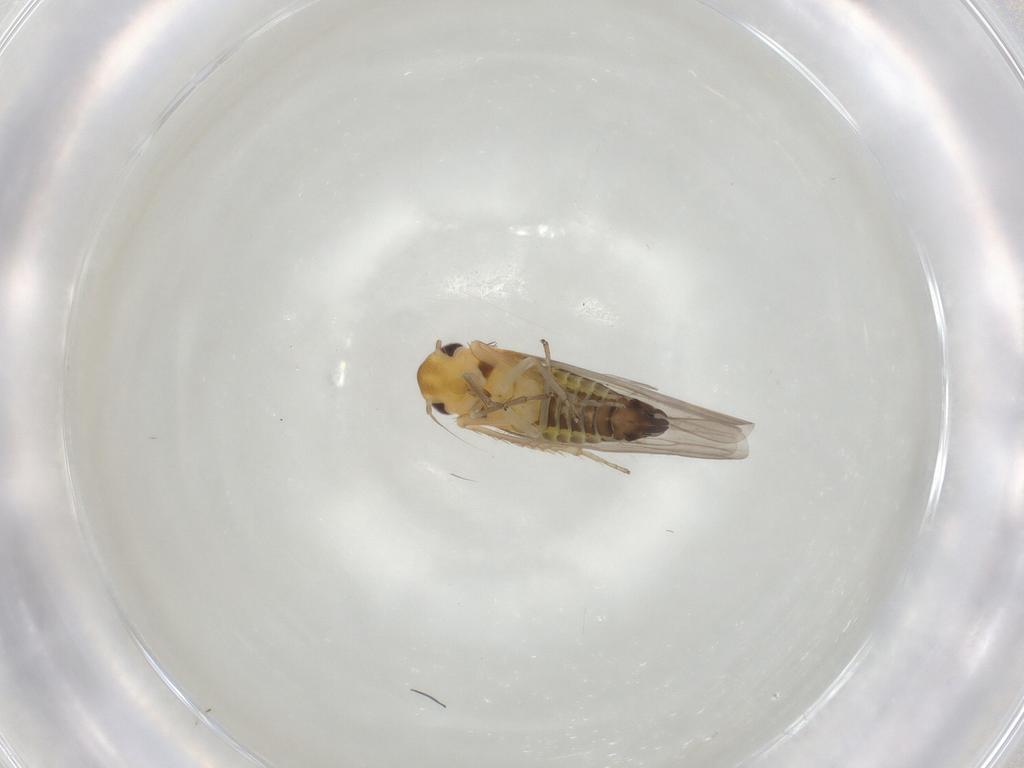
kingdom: Animalia
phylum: Arthropoda
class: Insecta
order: Hemiptera
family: Cicadellidae
